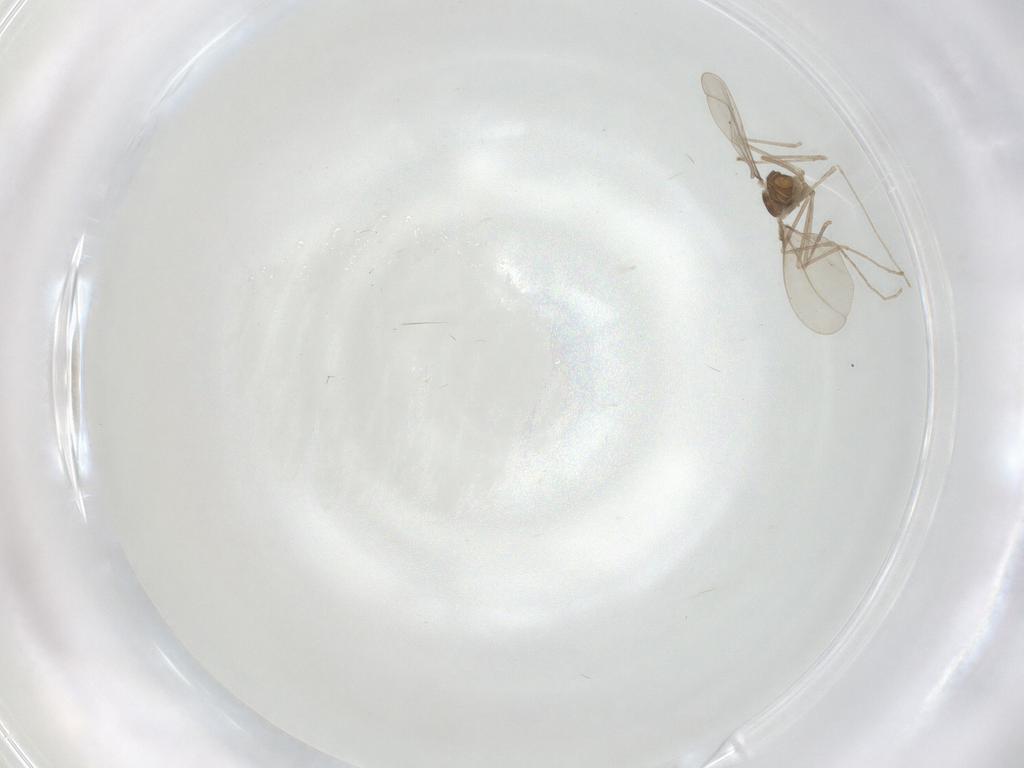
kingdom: Animalia
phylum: Arthropoda
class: Insecta
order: Diptera
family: Cecidomyiidae
